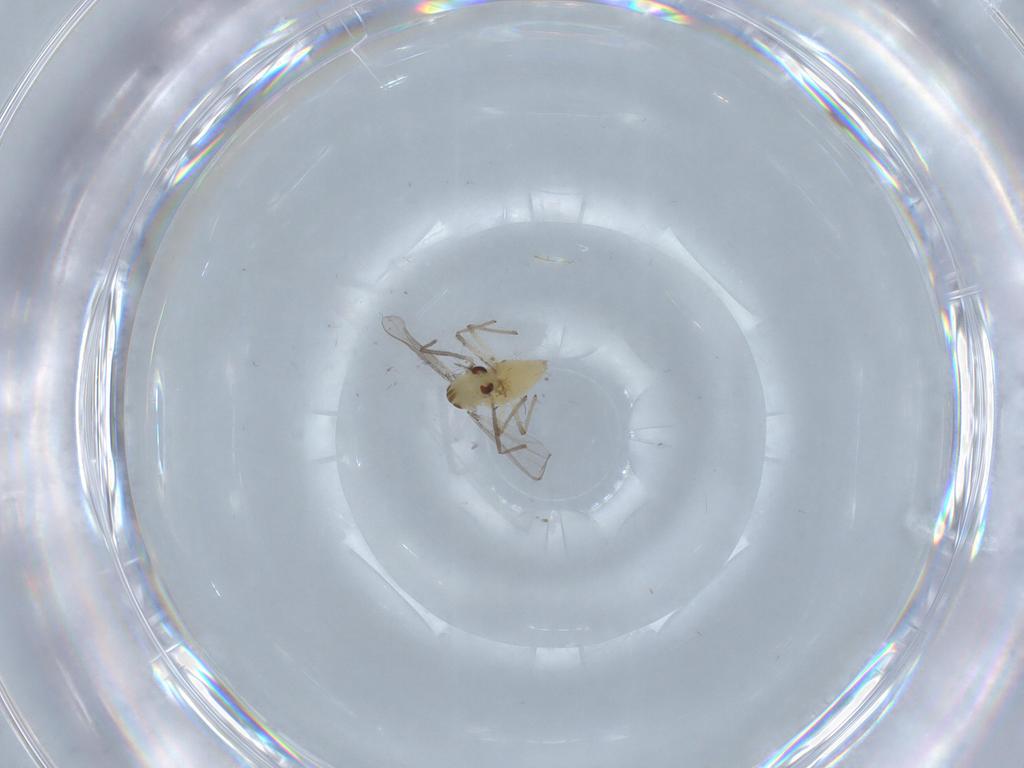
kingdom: Animalia
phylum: Arthropoda
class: Insecta
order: Diptera
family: Chironomidae
